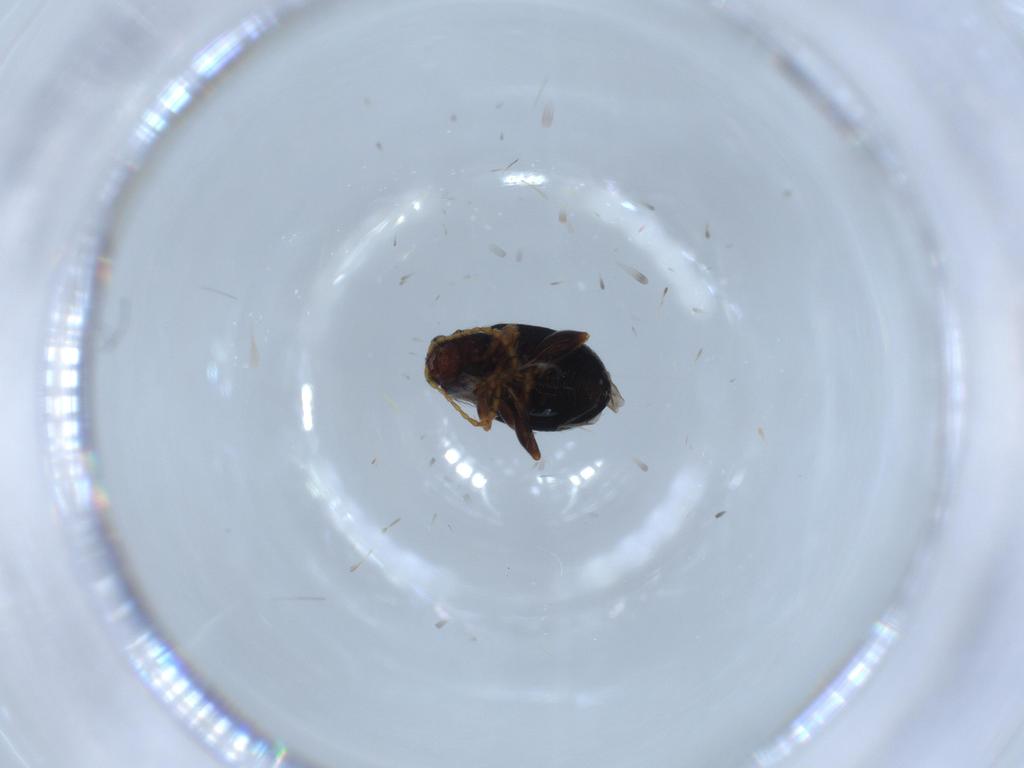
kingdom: Animalia
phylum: Arthropoda
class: Insecta
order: Coleoptera
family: Chrysomelidae
